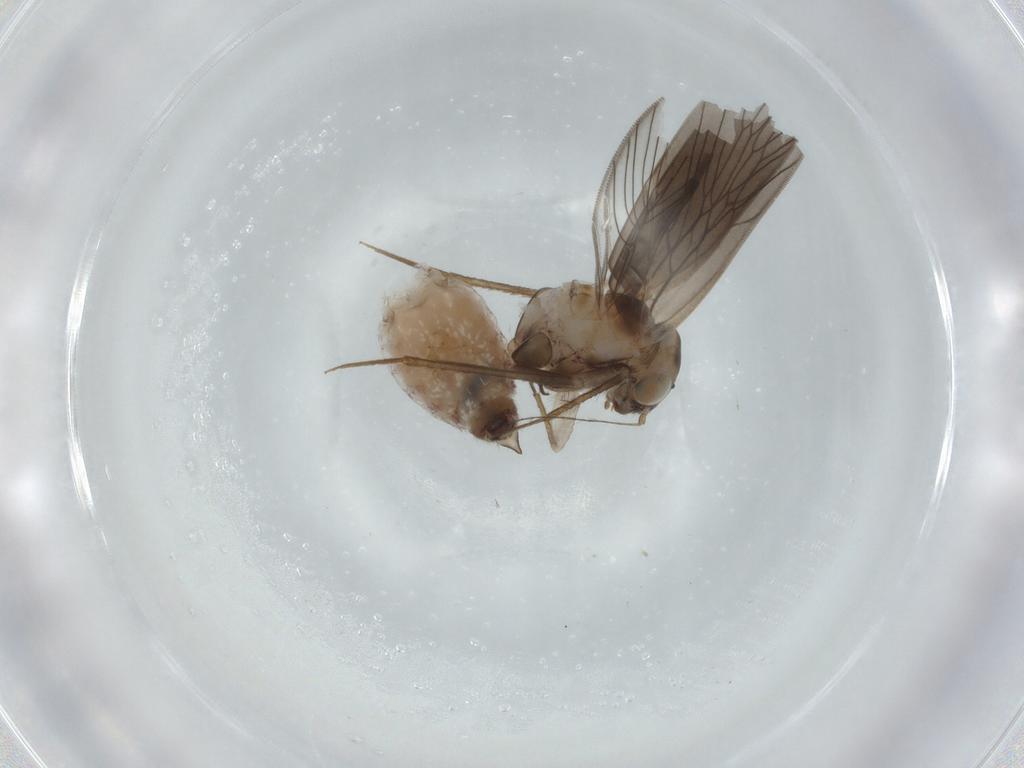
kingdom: Animalia
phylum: Arthropoda
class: Insecta
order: Psocodea
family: Lepidopsocidae
